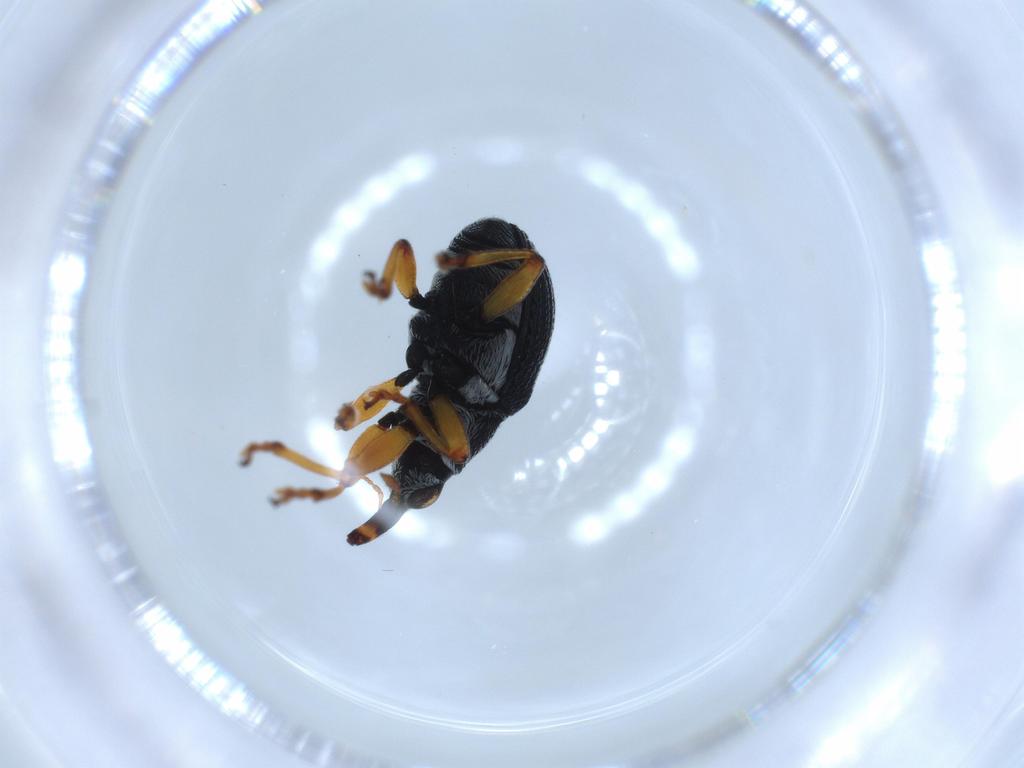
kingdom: Animalia
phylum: Arthropoda
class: Insecta
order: Coleoptera
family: Brentidae
